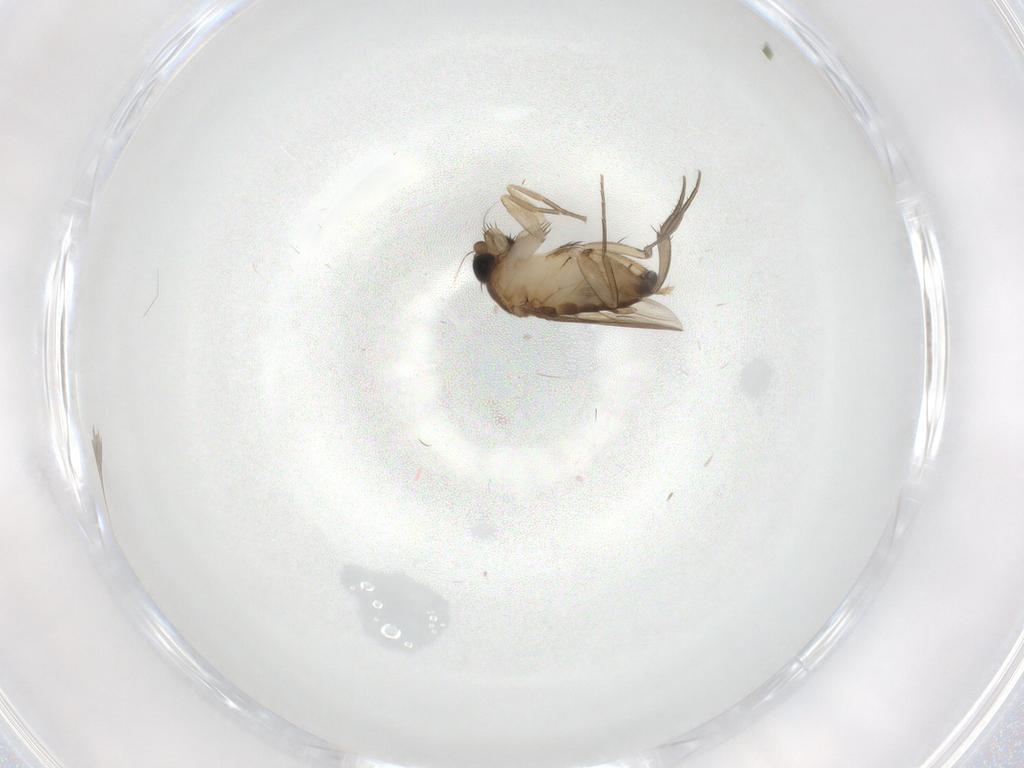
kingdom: Animalia
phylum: Arthropoda
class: Insecta
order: Diptera
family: Phoridae
